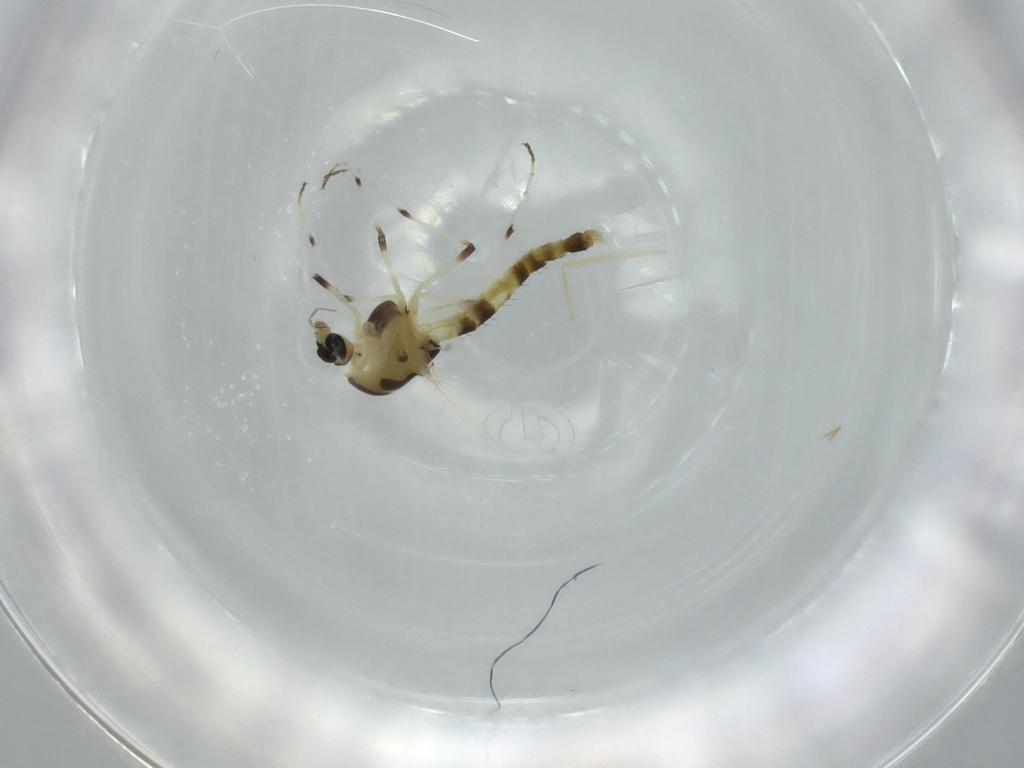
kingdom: Animalia
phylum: Arthropoda
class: Insecta
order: Diptera
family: Chironomidae
